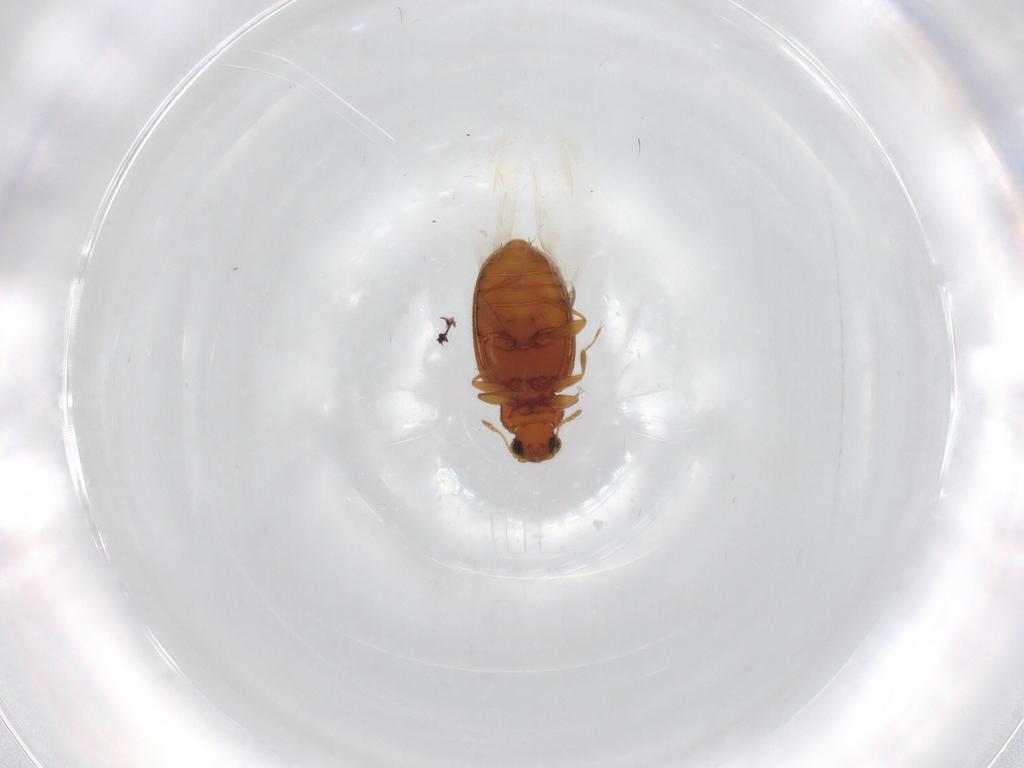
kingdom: Animalia
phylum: Arthropoda
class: Insecta
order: Coleoptera
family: Latridiidae
